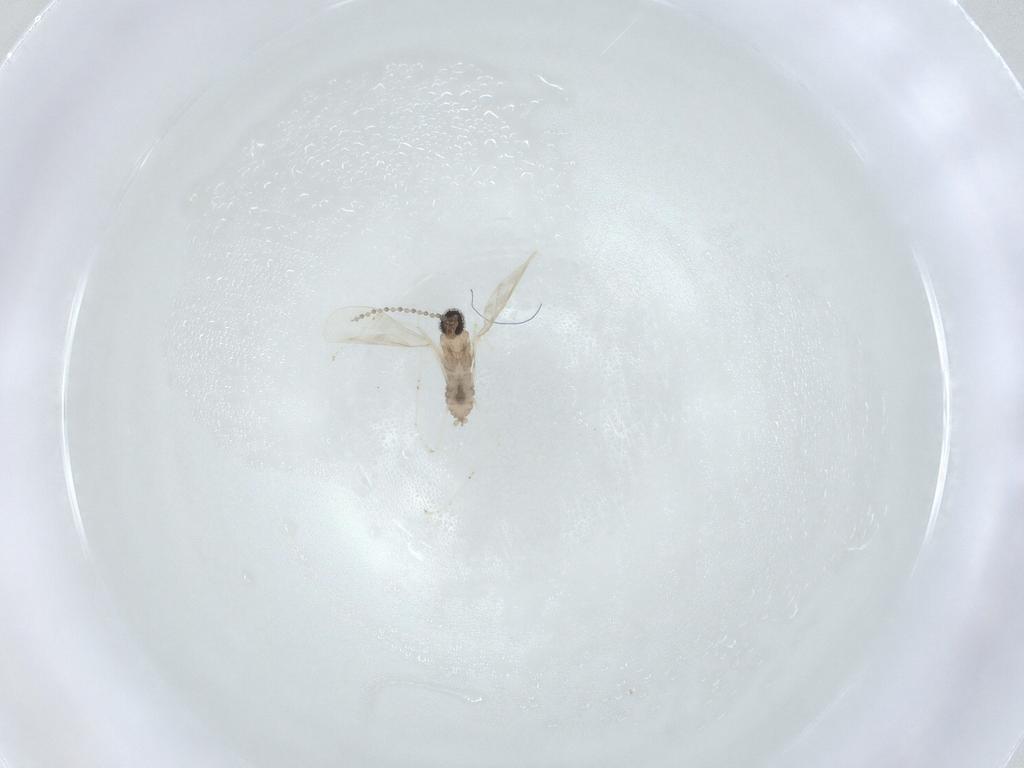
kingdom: Animalia
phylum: Arthropoda
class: Insecta
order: Diptera
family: Cecidomyiidae
